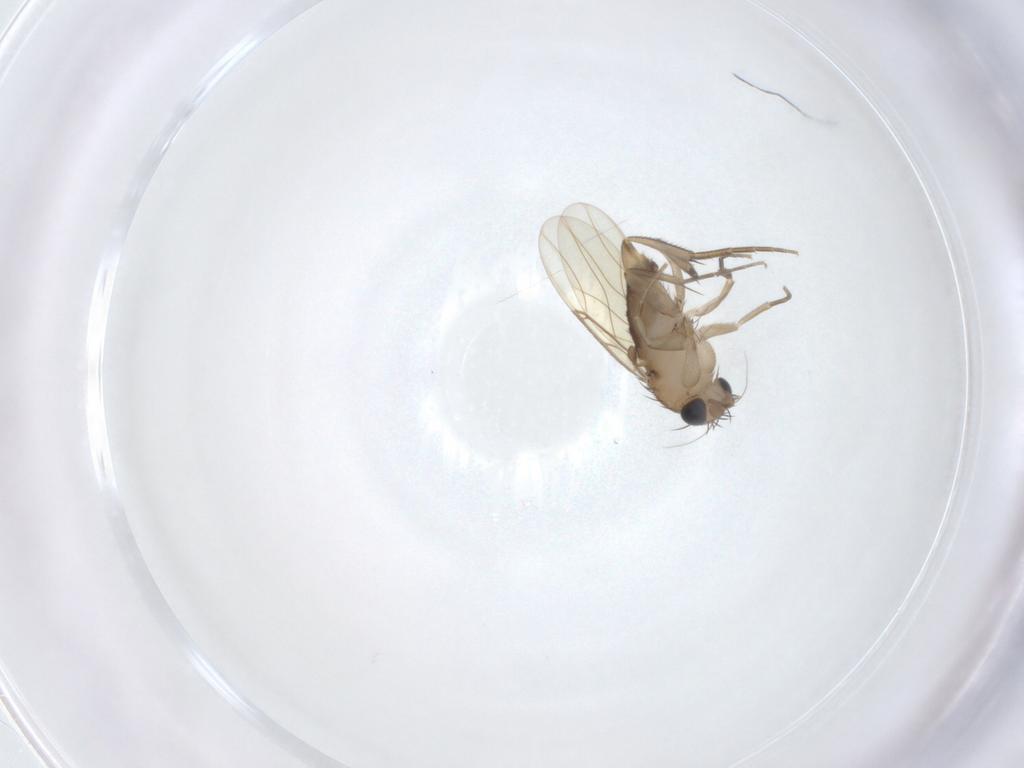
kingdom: Animalia
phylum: Arthropoda
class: Insecta
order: Diptera
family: Phoridae
